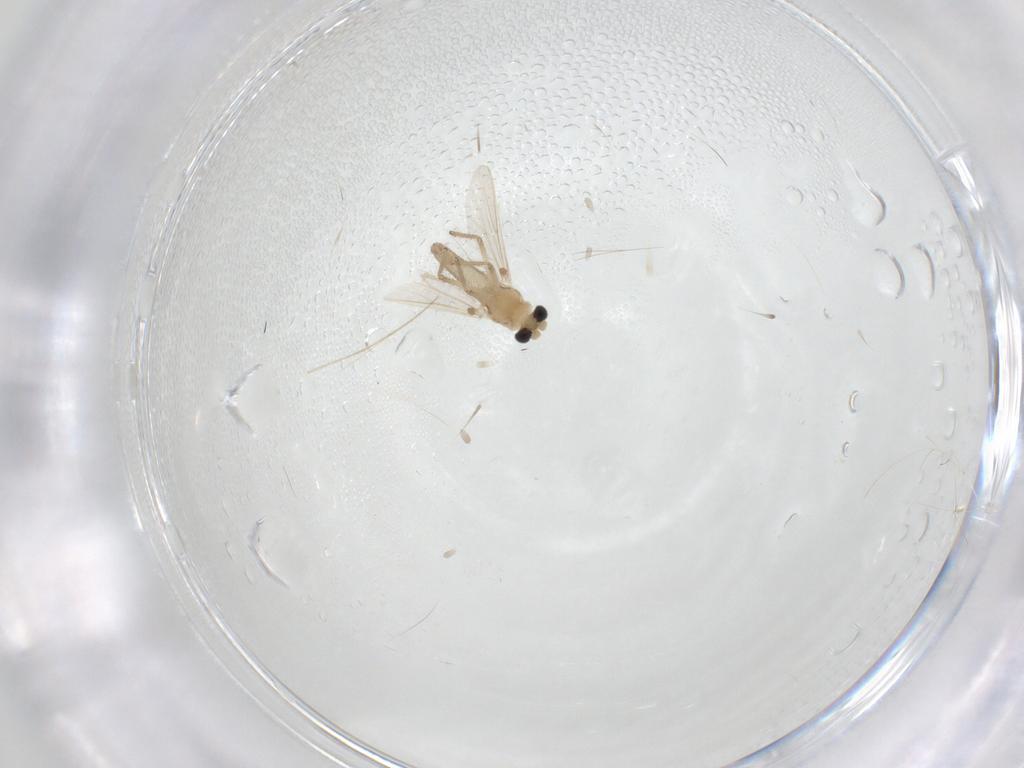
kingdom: Animalia
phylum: Arthropoda
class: Insecta
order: Diptera
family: Chironomidae
